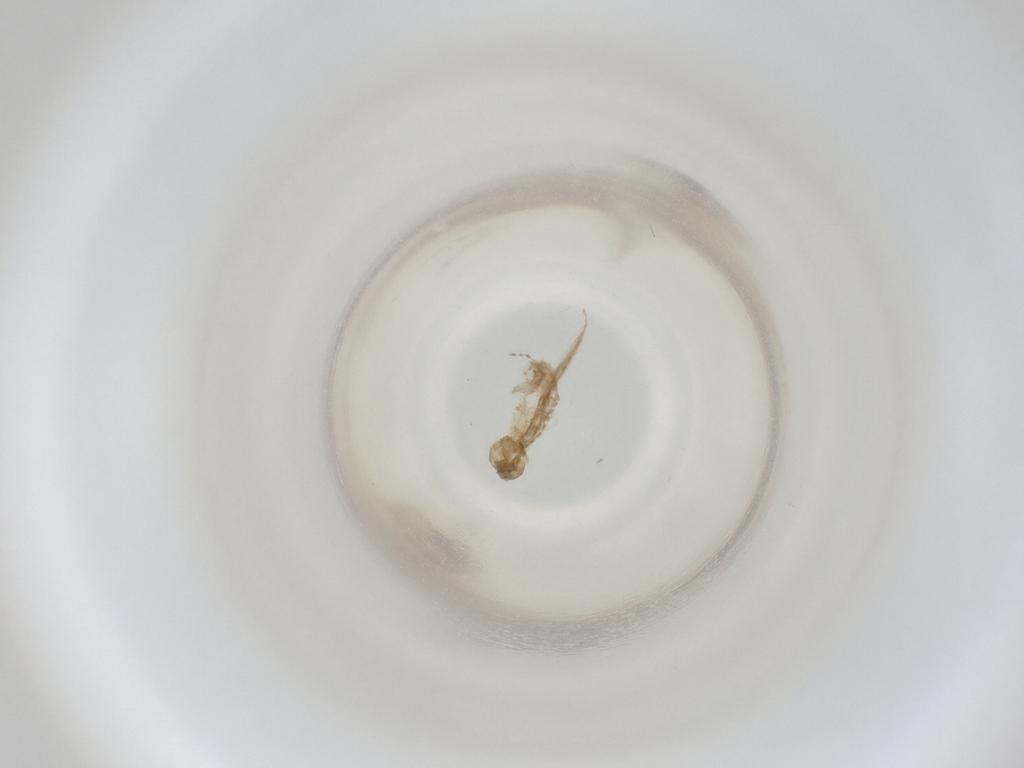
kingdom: Animalia
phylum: Arthropoda
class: Insecta
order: Diptera
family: Cecidomyiidae
